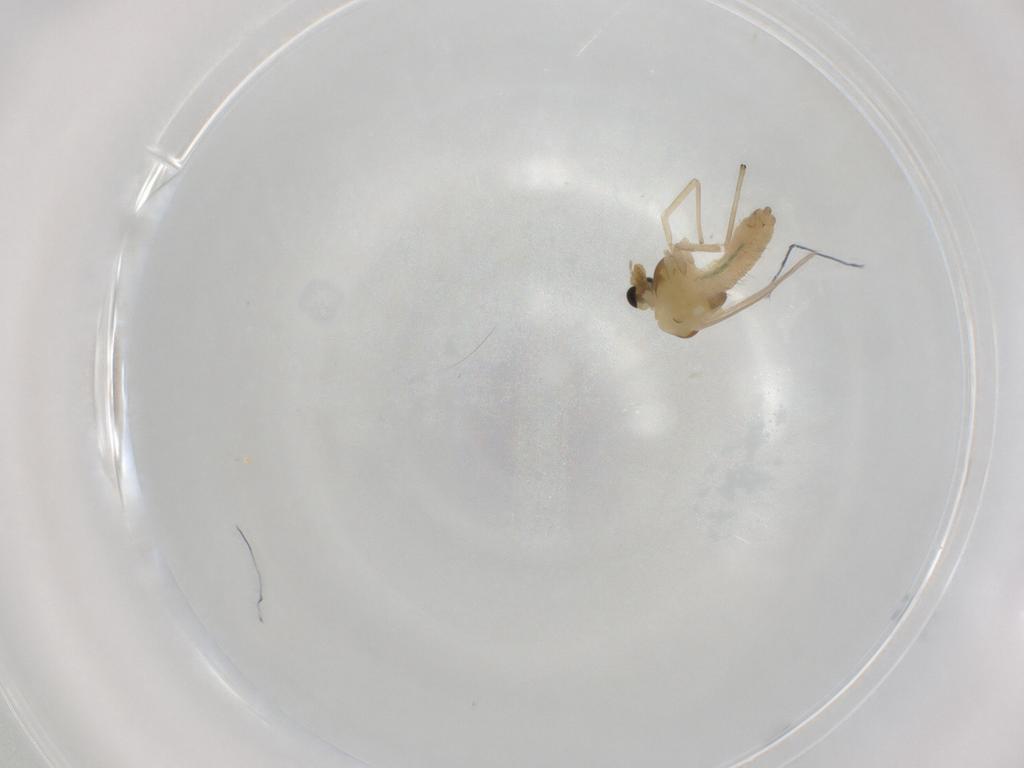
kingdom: Animalia
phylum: Arthropoda
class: Insecta
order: Diptera
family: Chironomidae
